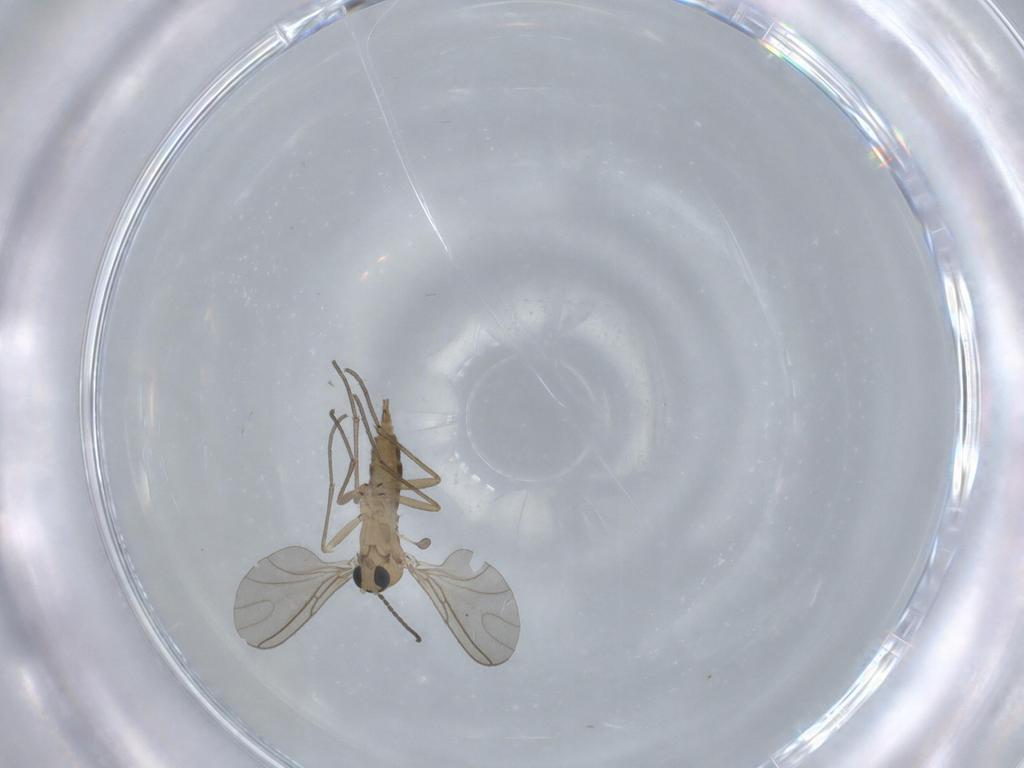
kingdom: Animalia
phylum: Arthropoda
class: Insecta
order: Diptera
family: Sciaridae
